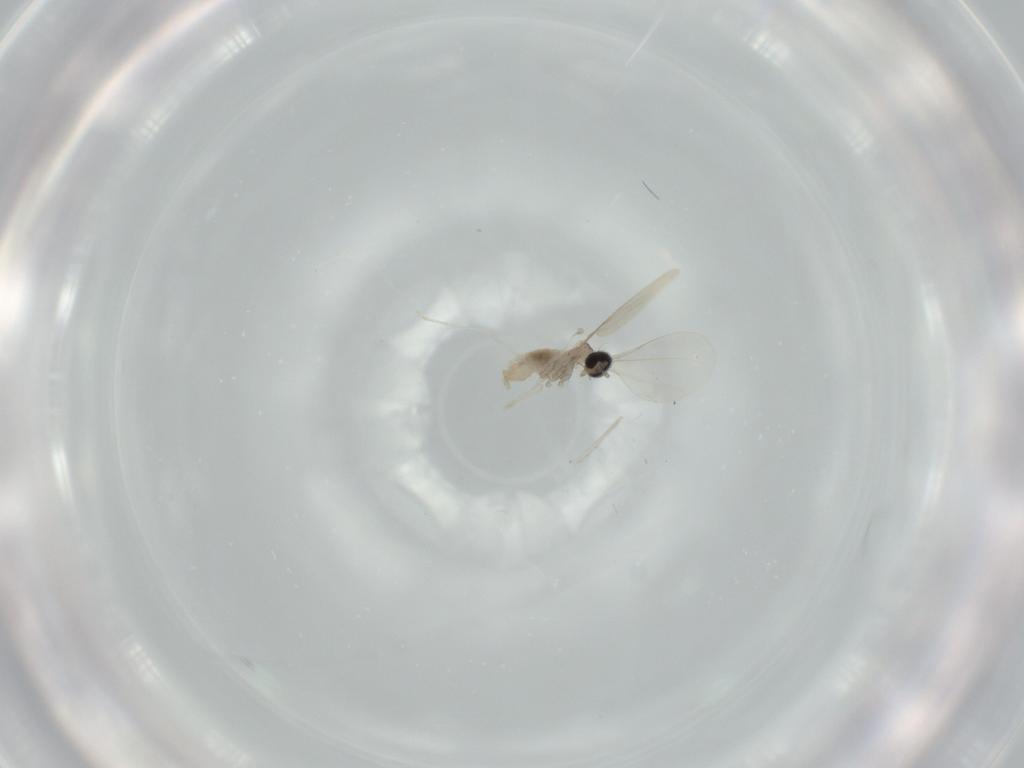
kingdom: Animalia
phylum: Arthropoda
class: Insecta
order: Diptera
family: Cecidomyiidae
